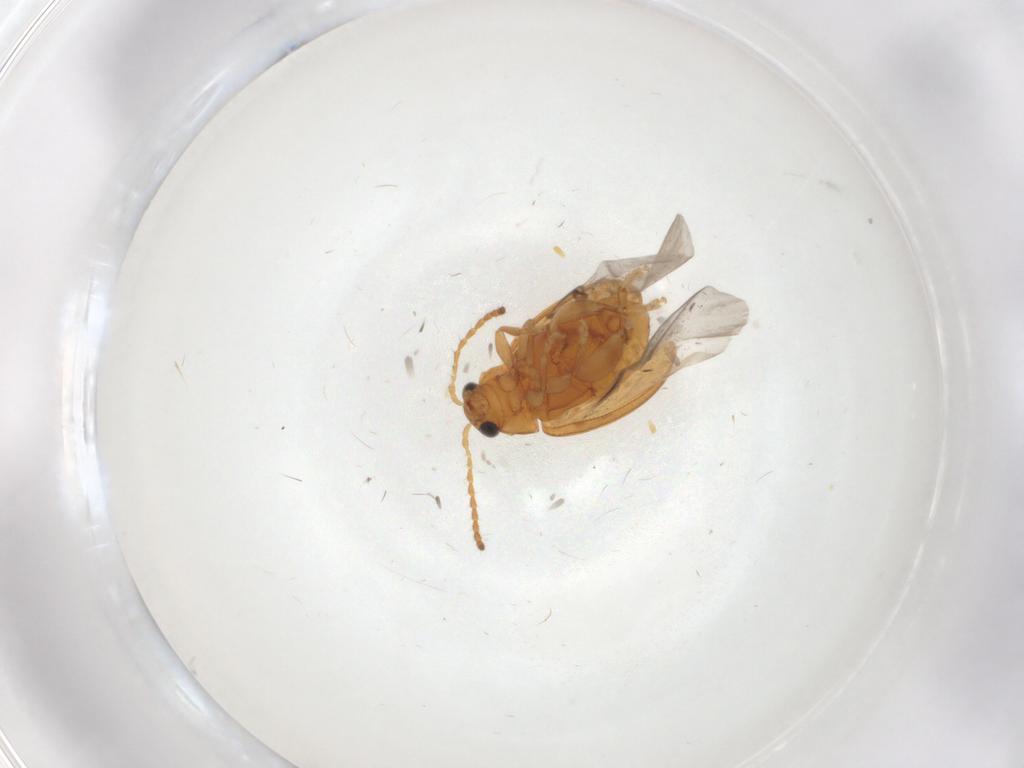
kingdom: Animalia
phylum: Arthropoda
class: Insecta
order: Coleoptera
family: Chrysomelidae
